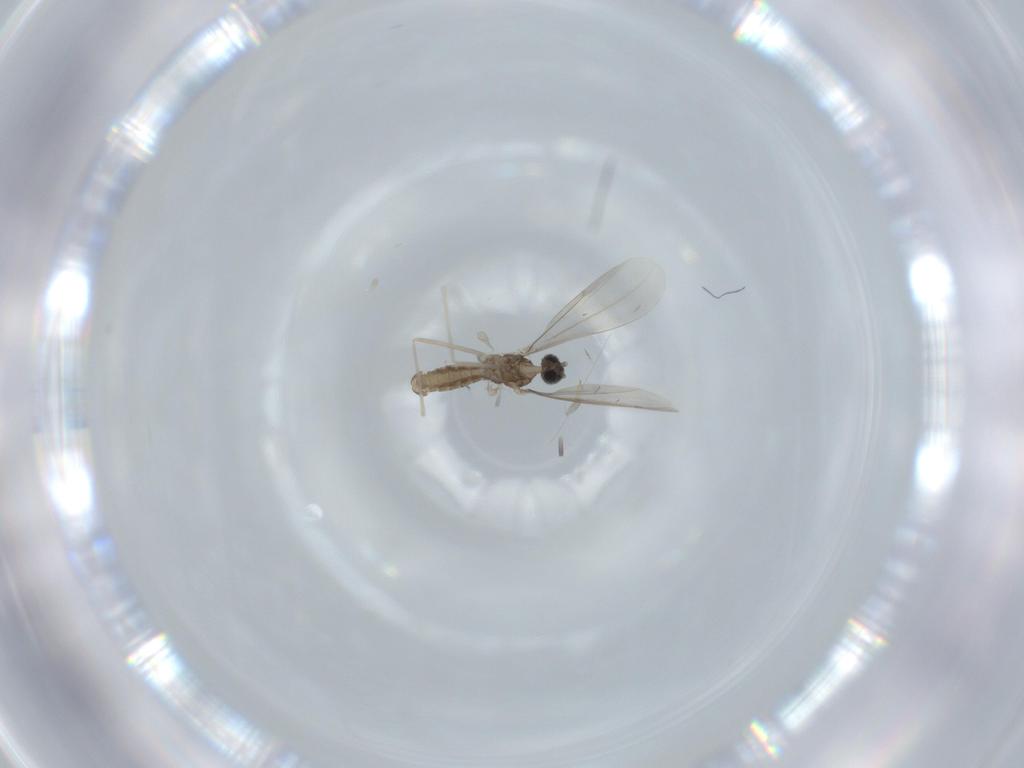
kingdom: Animalia
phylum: Arthropoda
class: Insecta
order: Diptera
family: Cecidomyiidae
